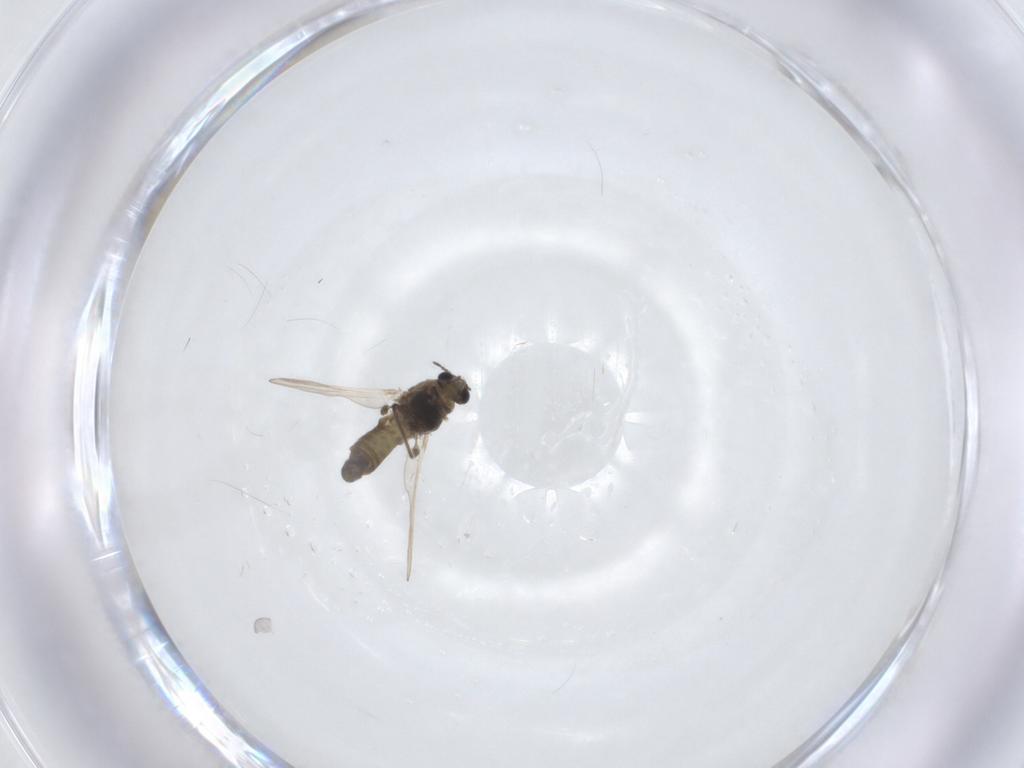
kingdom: Animalia
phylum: Arthropoda
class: Insecta
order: Diptera
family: Chironomidae
